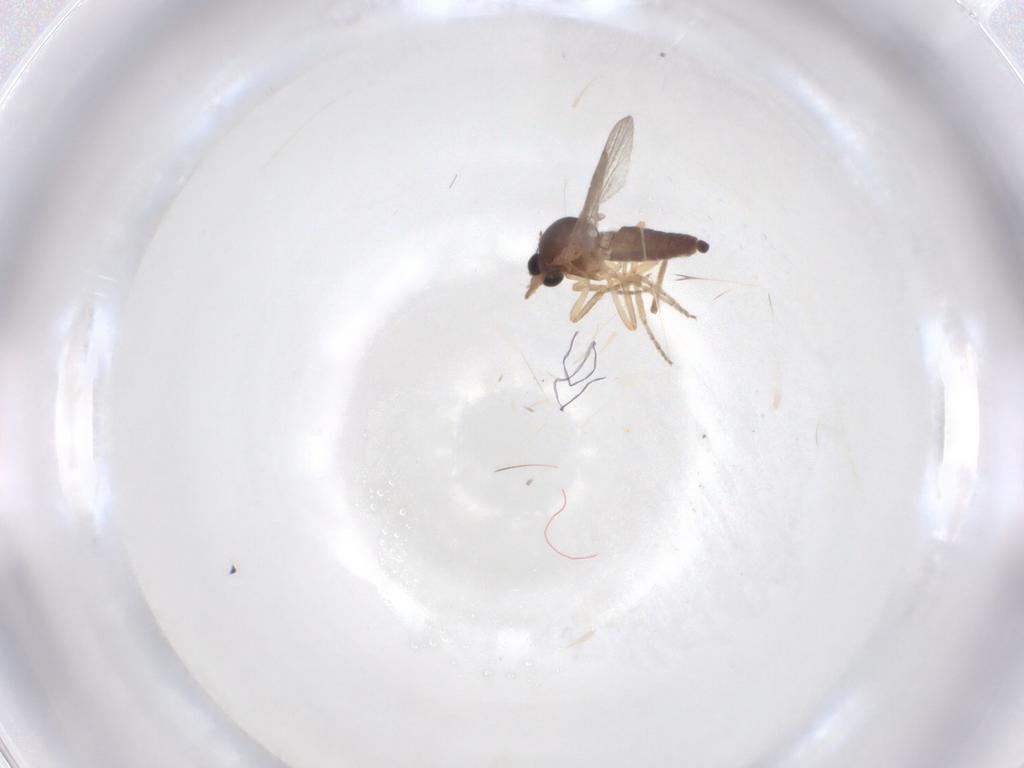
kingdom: Animalia
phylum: Arthropoda
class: Insecta
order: Diptera
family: Ceratopogonidae
